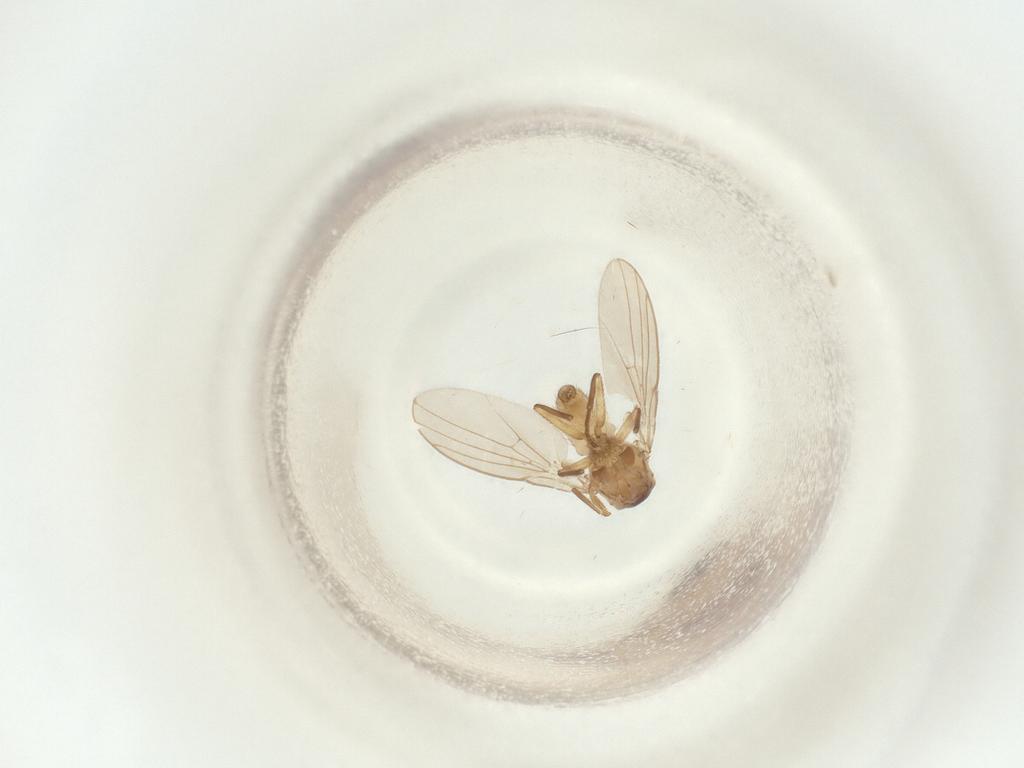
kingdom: Animalia
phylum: Arthropoda
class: Insecta
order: Diptera
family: Agromyzidae
